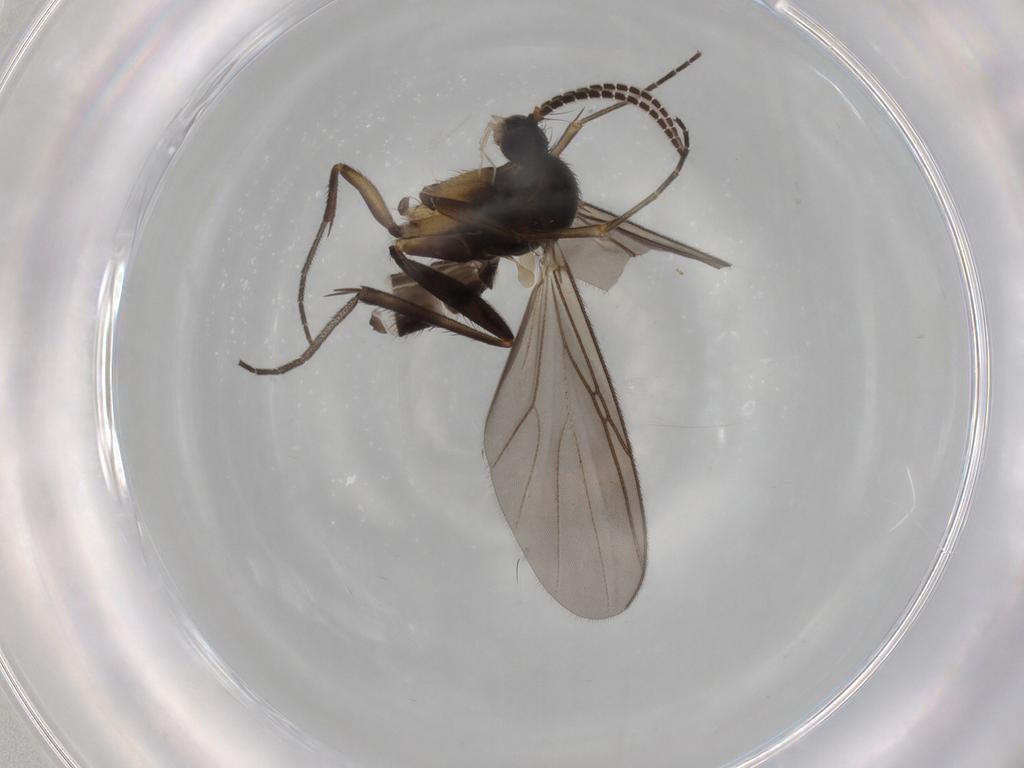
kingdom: Animalia
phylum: Arthropoda
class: Insecta
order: Diptera
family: Mycetophilidae
